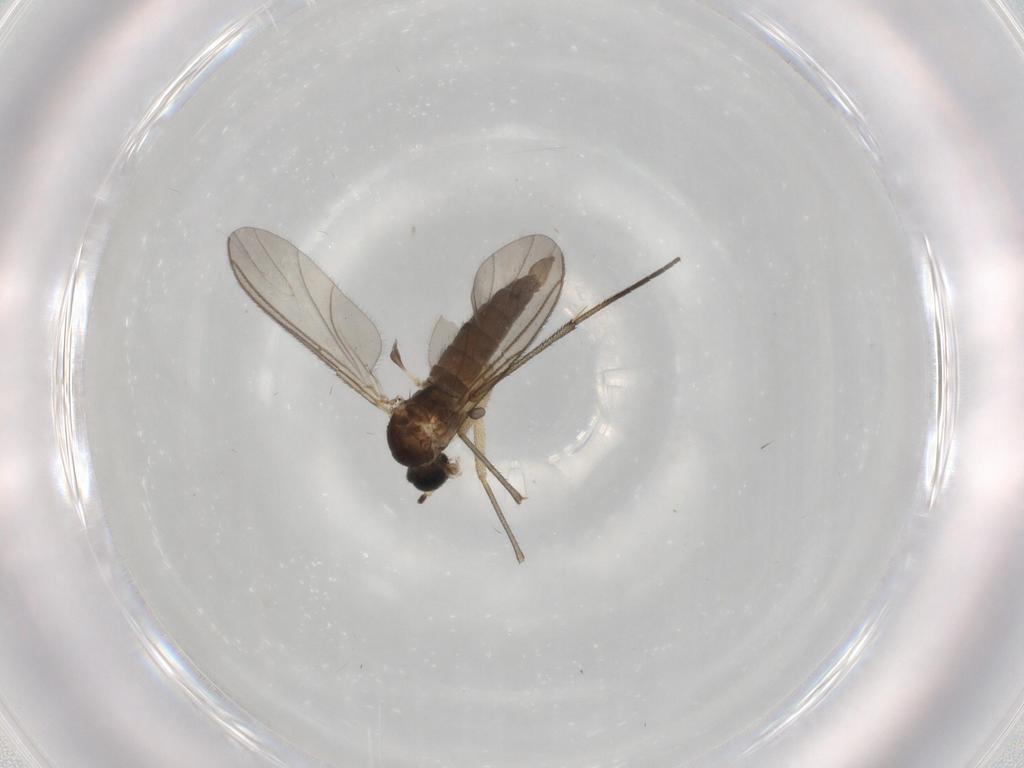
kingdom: Animalia
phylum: Arthropoda
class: Insecta
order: Diptera
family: Sciaridae
